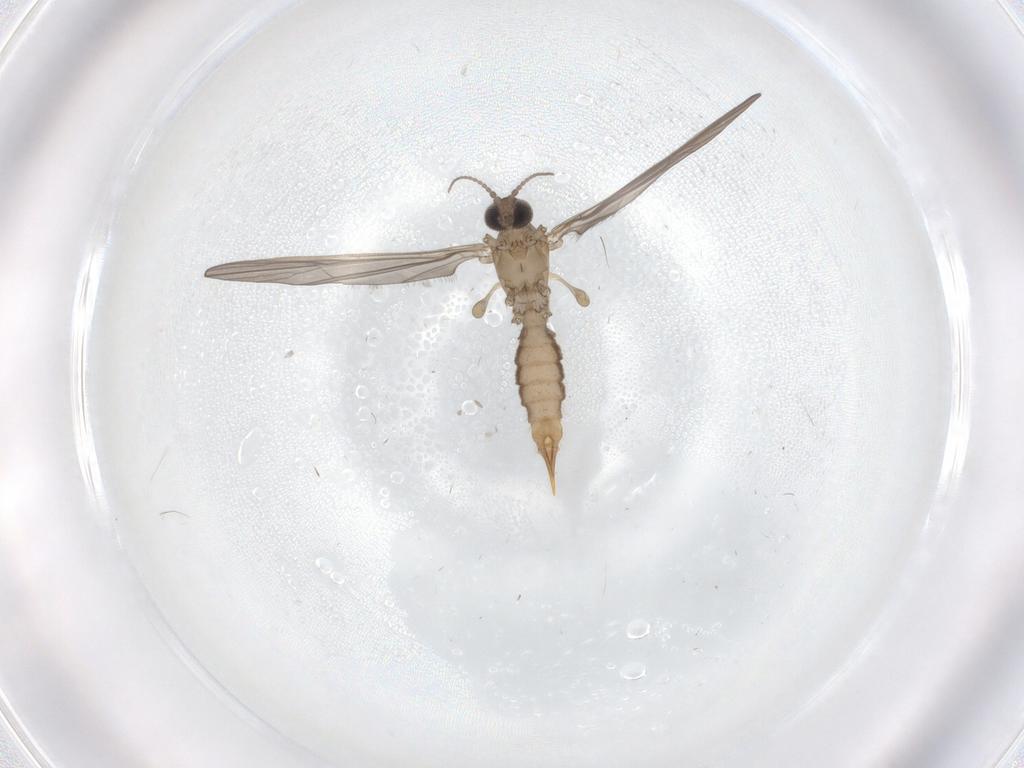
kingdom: Animalia
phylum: Arthropoda
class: Insecta
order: Diptera
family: Limoniidae
